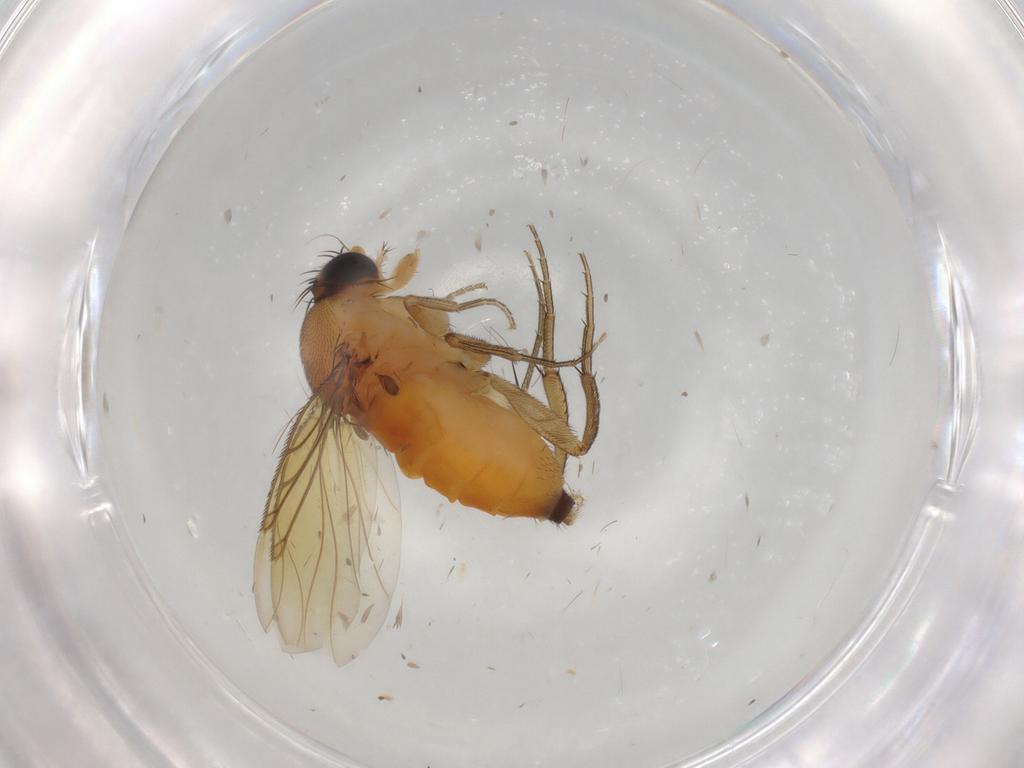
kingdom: Animalia
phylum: Arthropoda
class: Insecta
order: Diptera
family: Phoridae
